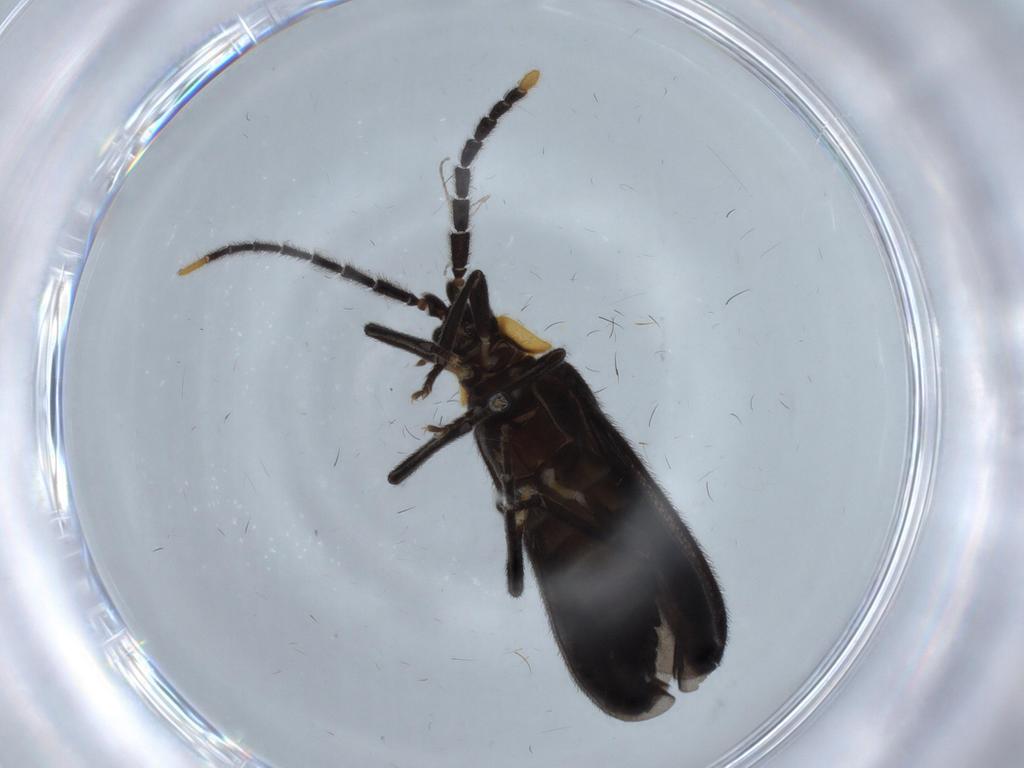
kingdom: Animalia
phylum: Arthropoda
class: Insecta
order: Coleoptera
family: Lycidae
